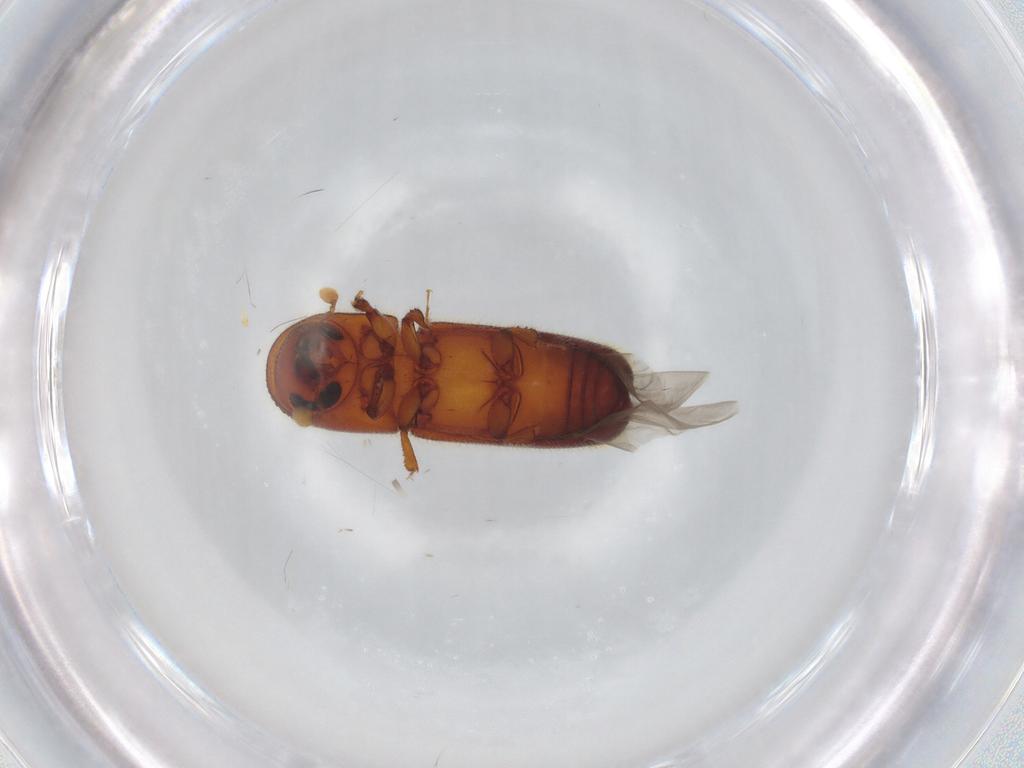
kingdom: Animalia
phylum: Arthropoda
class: Insecta
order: Coleoptera
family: Curculionidae
